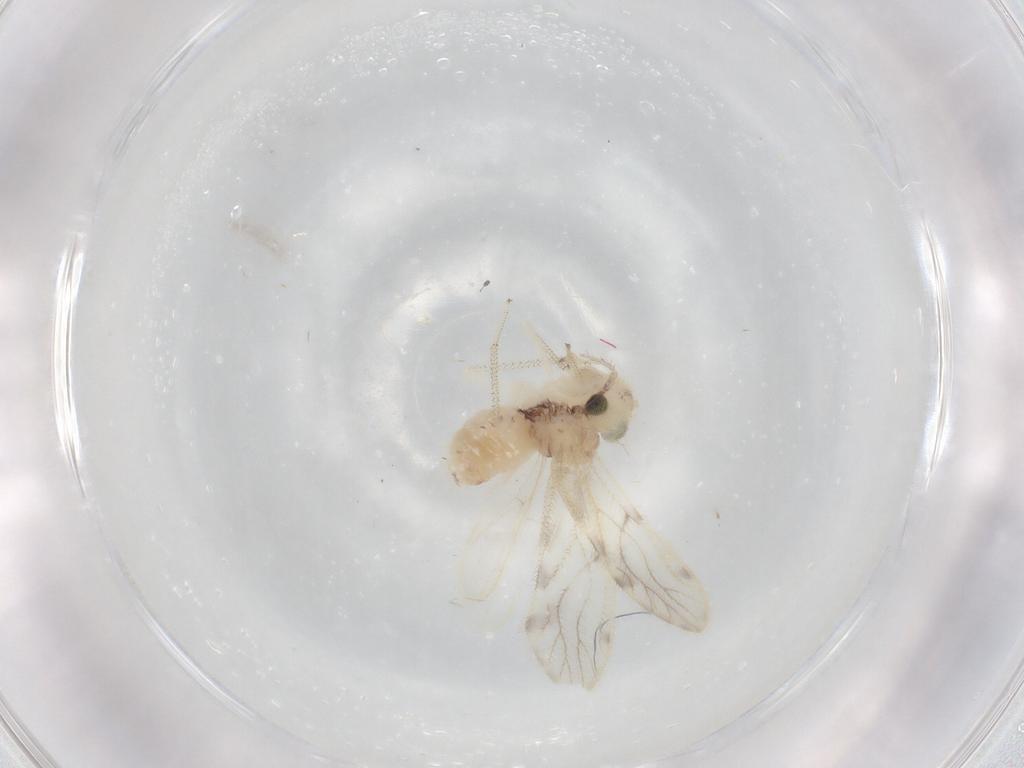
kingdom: Animalia
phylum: Arthropoda
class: Insecta
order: Psocodea
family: Pseudocaeciliidae
